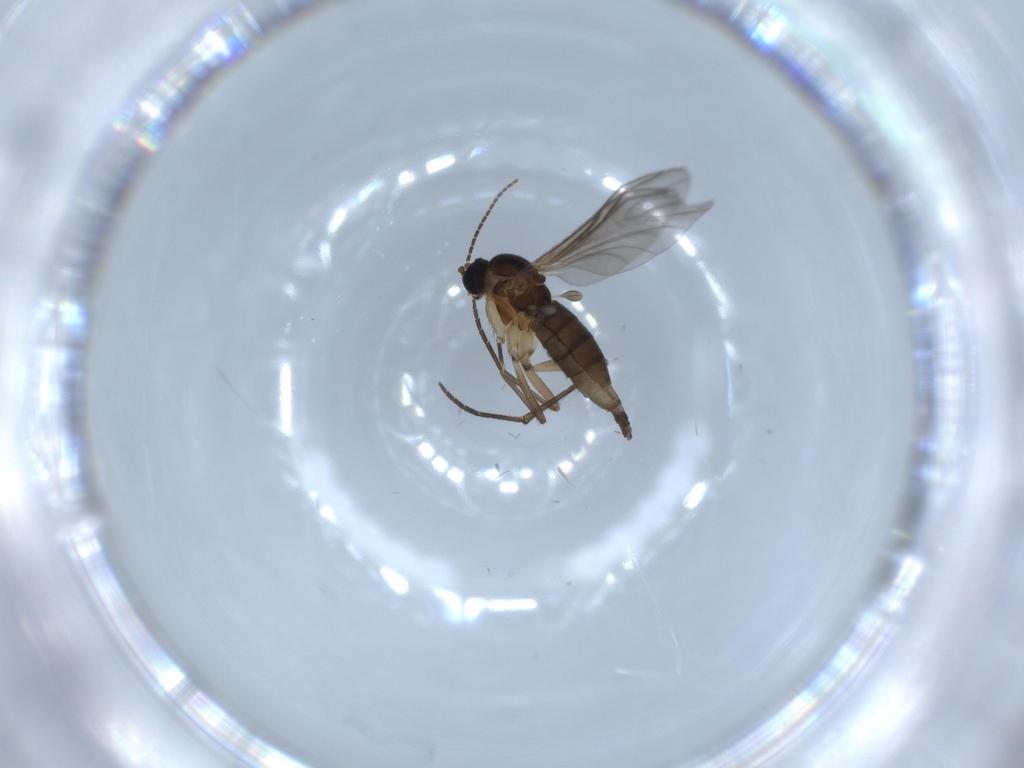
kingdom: Animalia
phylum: Arthropoda
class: Insecta
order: Diptera
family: Sciaridae
